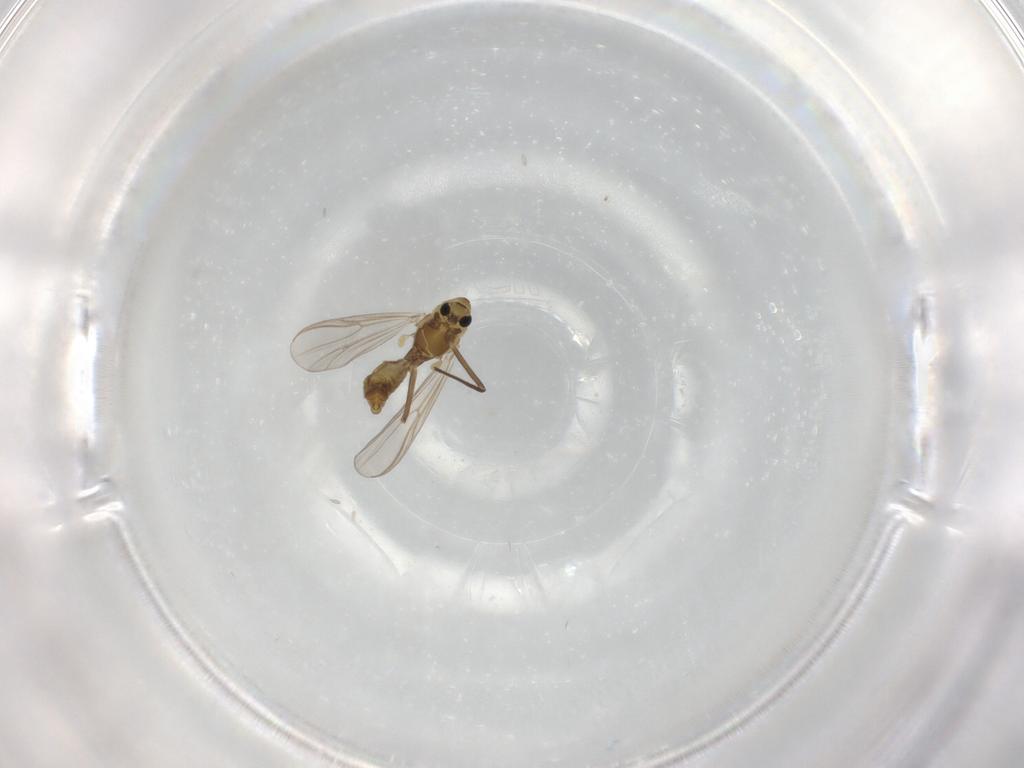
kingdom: Animalia
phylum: Arthropoda
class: Insecta
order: Diptera
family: Chironomidae
